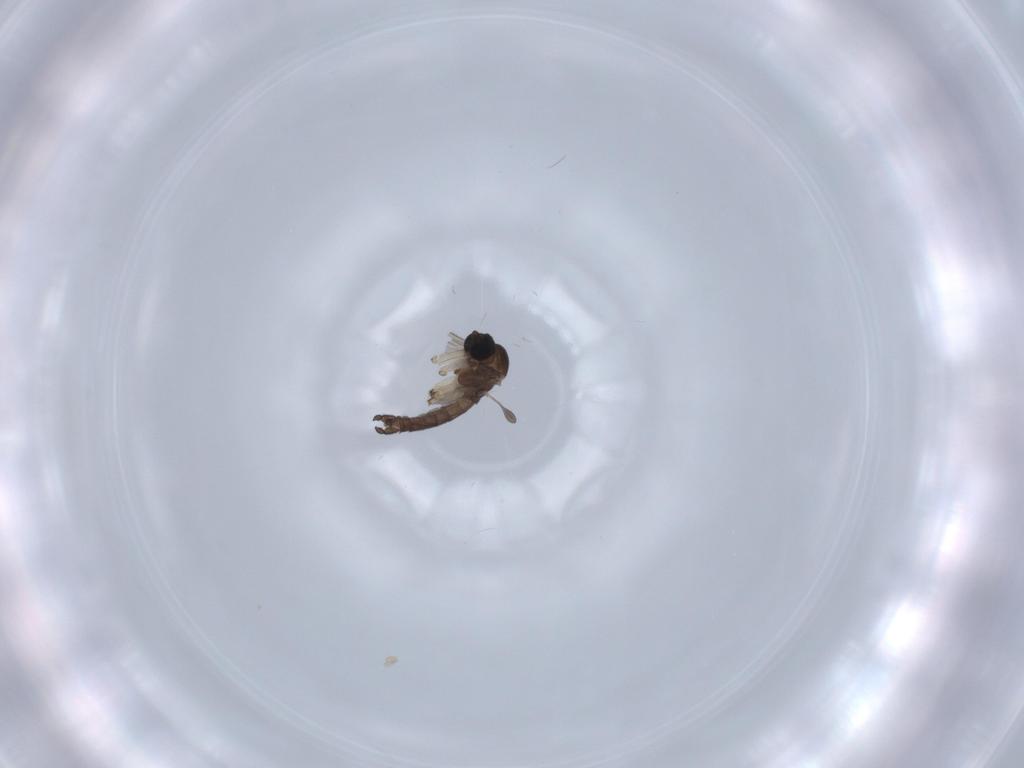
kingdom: Animalia
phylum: Arthropoda
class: Insecta
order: Diptera
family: Sciaridae
